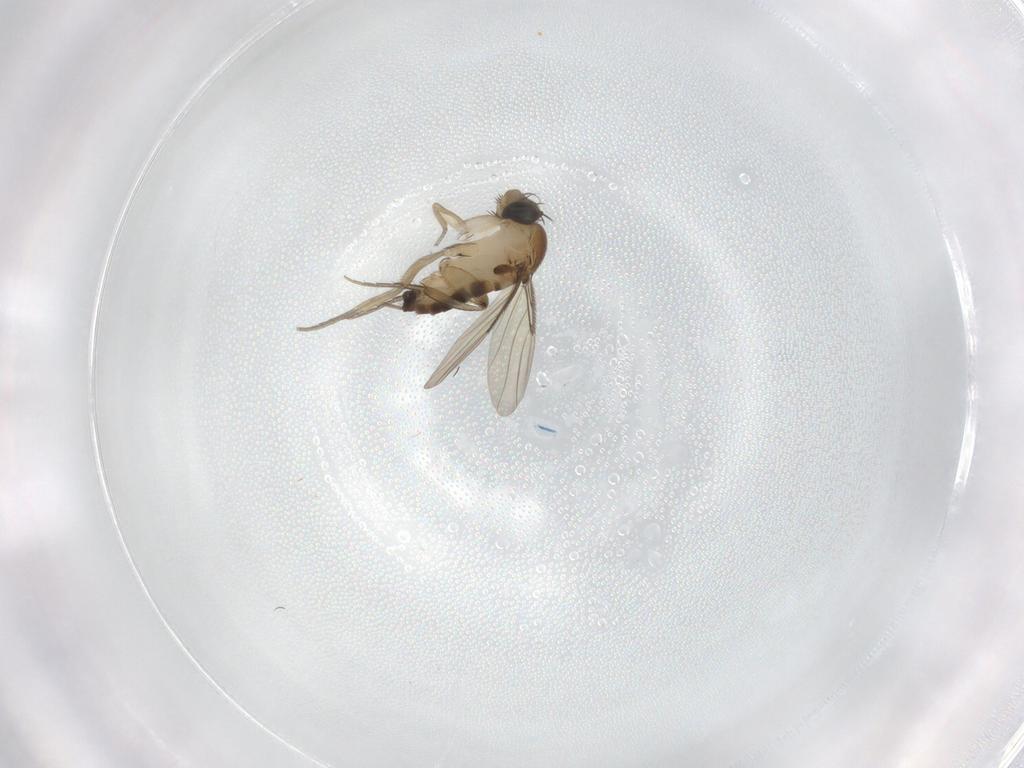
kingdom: Animalia
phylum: Arthropoda
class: Insecta
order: Diptera
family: Phoridae
